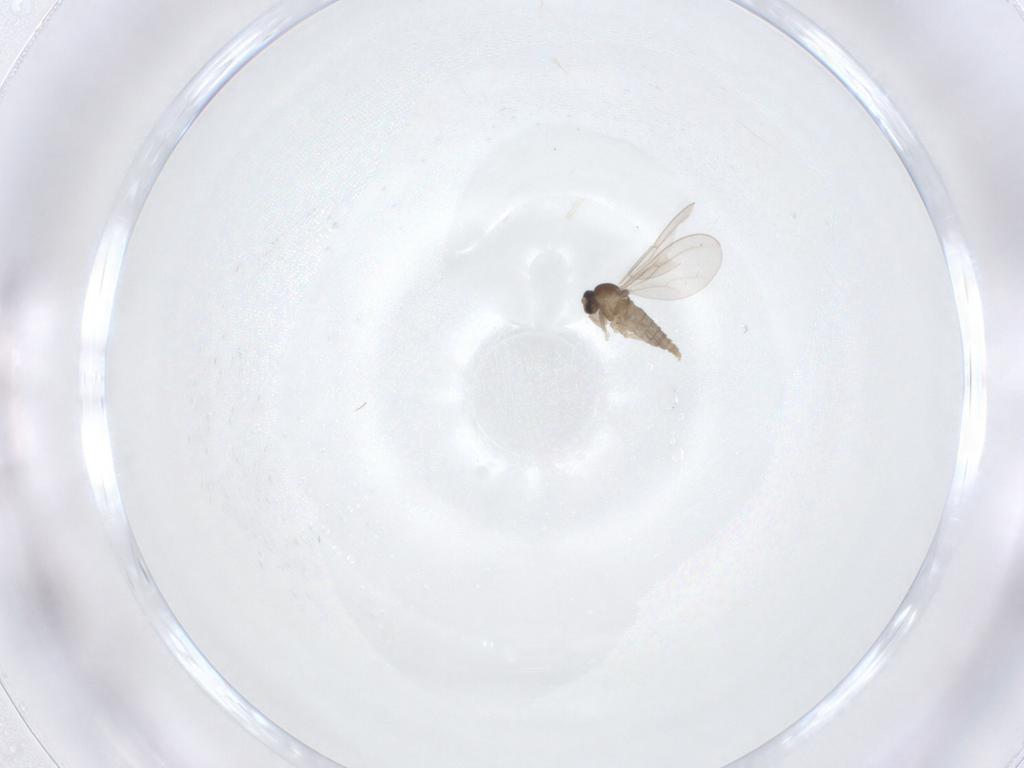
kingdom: Animalia
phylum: Arthropoda
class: Insecta
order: Diptera
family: Cecidomyiidae
